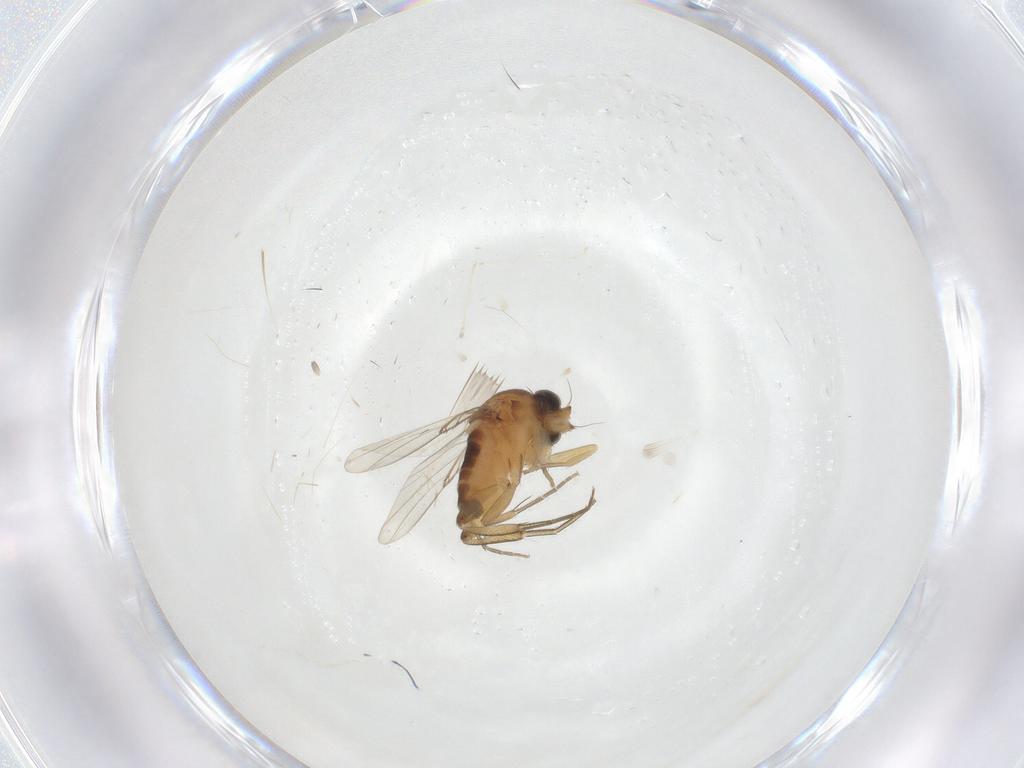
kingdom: Animalia
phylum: Arthropoda
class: Insecta
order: Diptera
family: Phoridae
